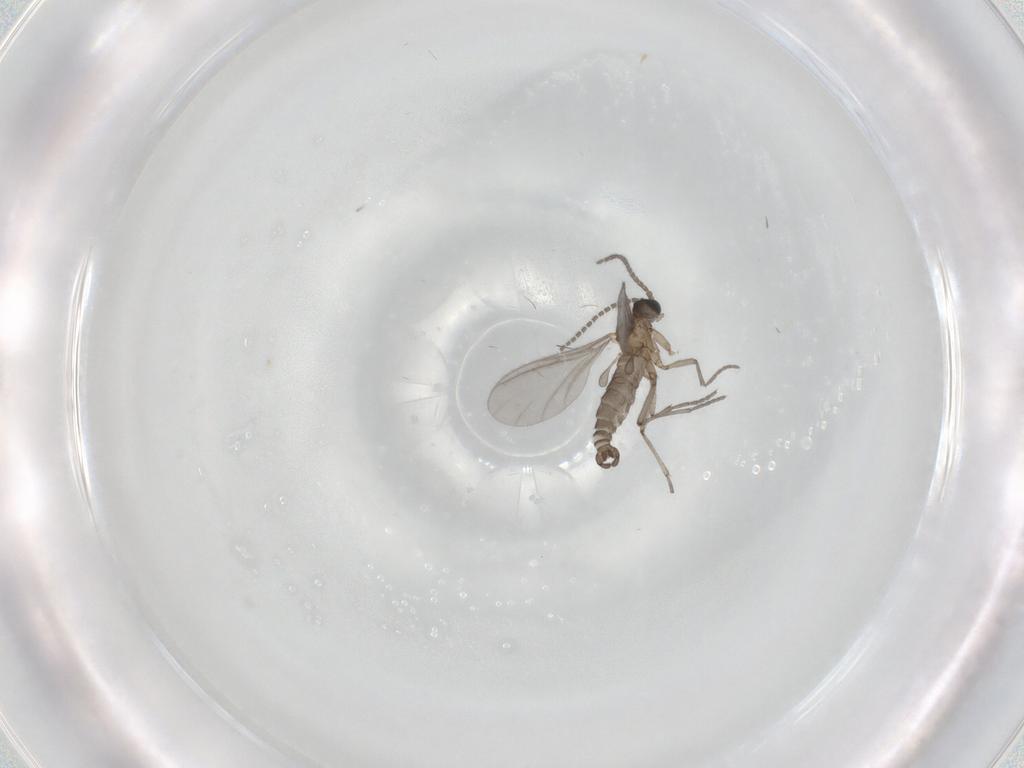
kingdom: Animalia
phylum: Arthropoda
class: Insecta
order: Diptera
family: Sciaridae
